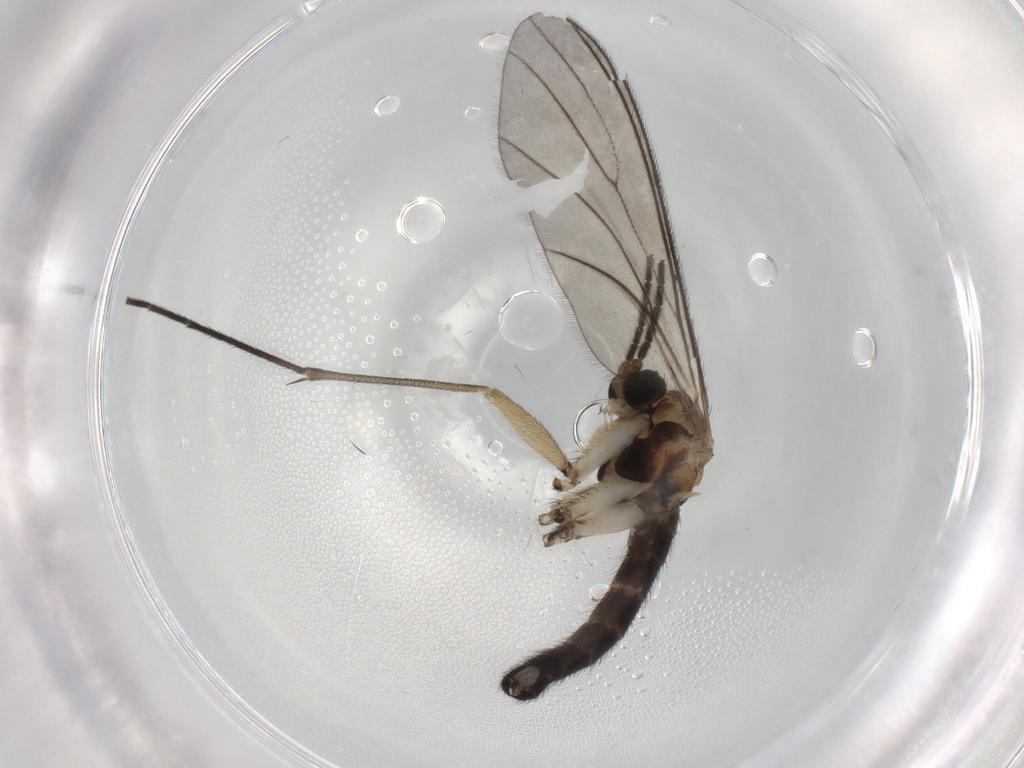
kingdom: Animalia
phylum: Arthropoda
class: Insecta
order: Diptera
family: Sciaridae
